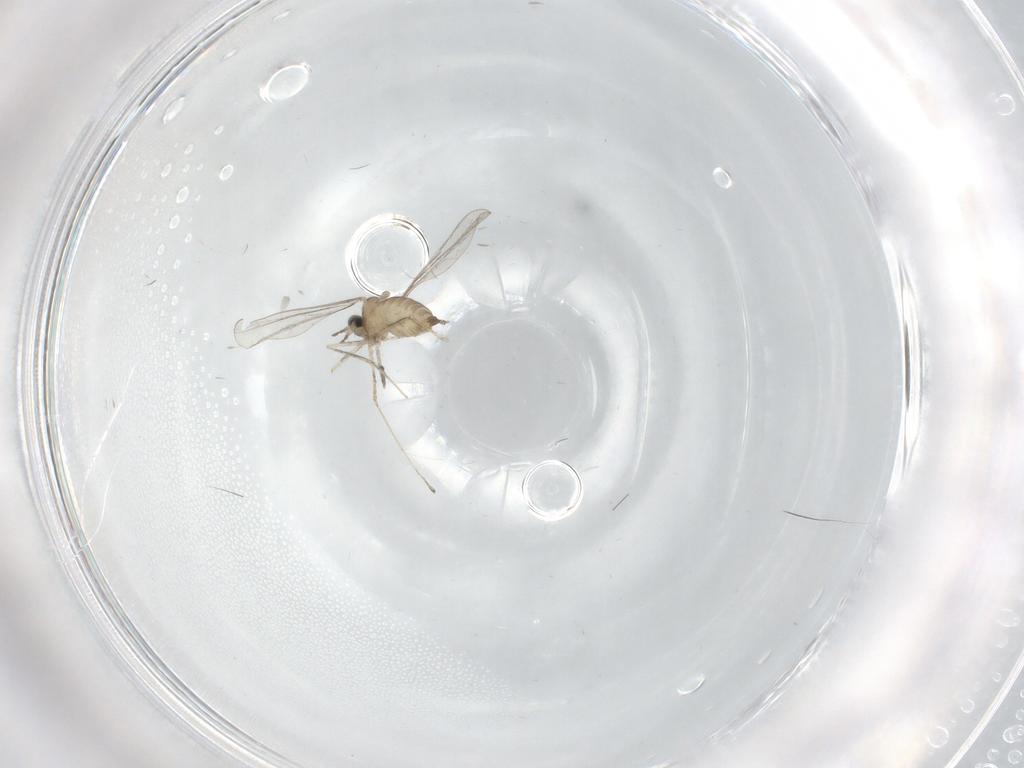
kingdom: Animalia
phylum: Arthropoda
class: Insecta
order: Diptera
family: Cecidomyiidae
